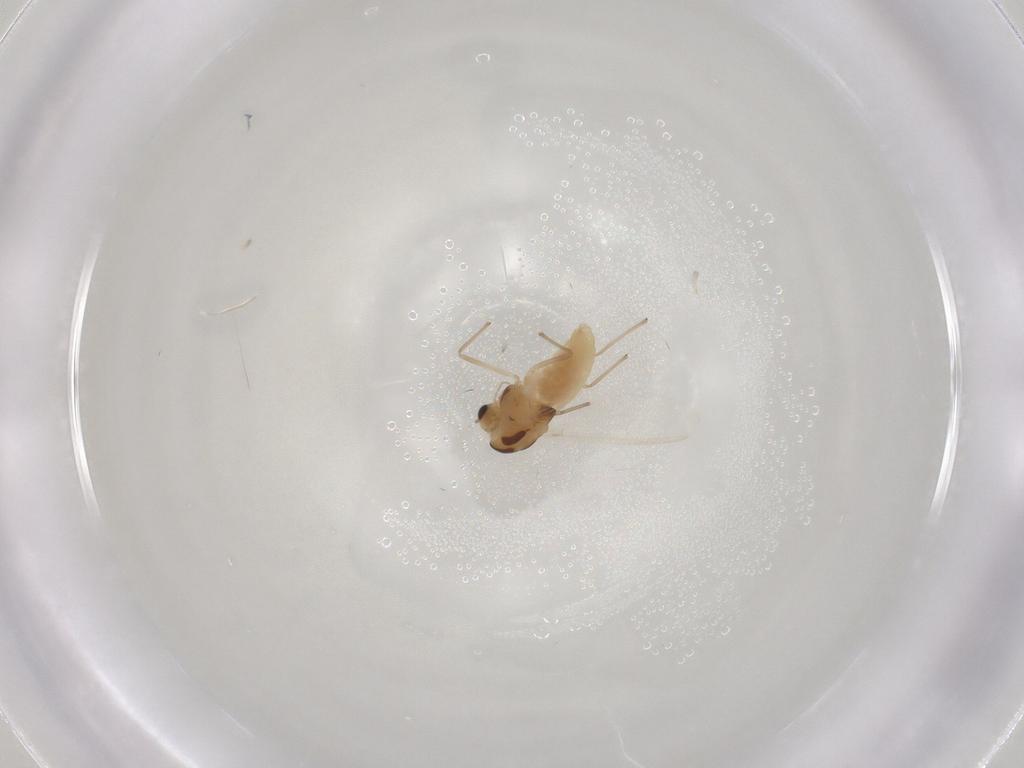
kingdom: Animalia
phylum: Arthropoda
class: Insecta
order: Diptera
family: Chironomidae
